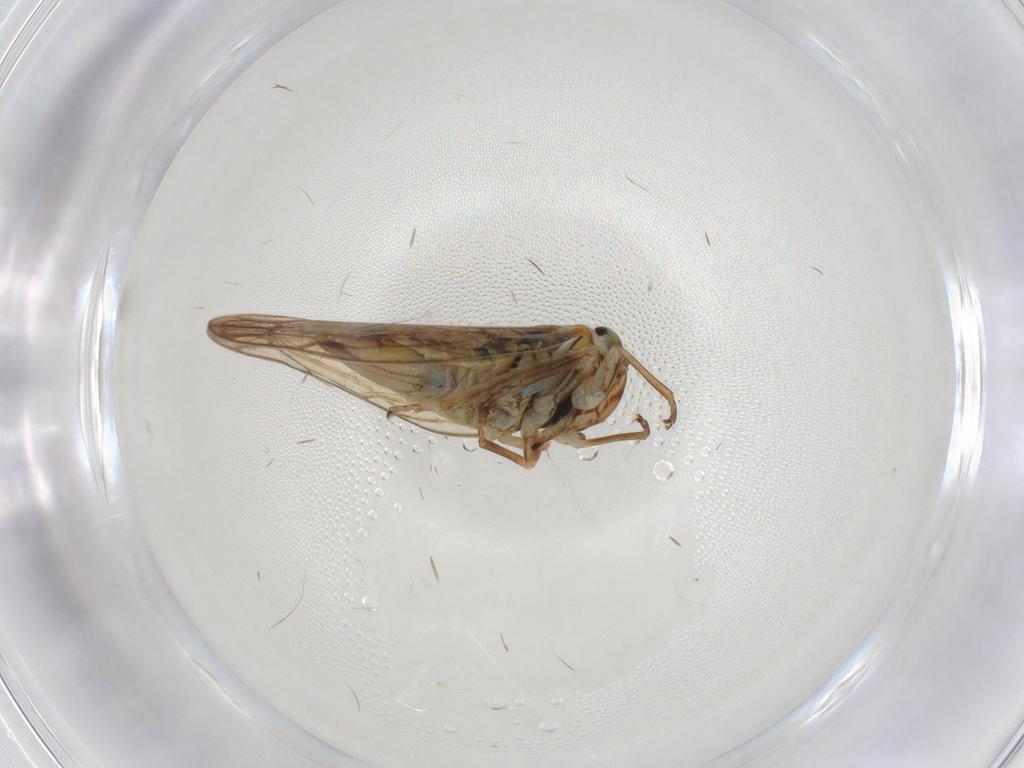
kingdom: Animalia
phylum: Arthropoda
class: Insecta
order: Hemiptera
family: Cicadellidae
